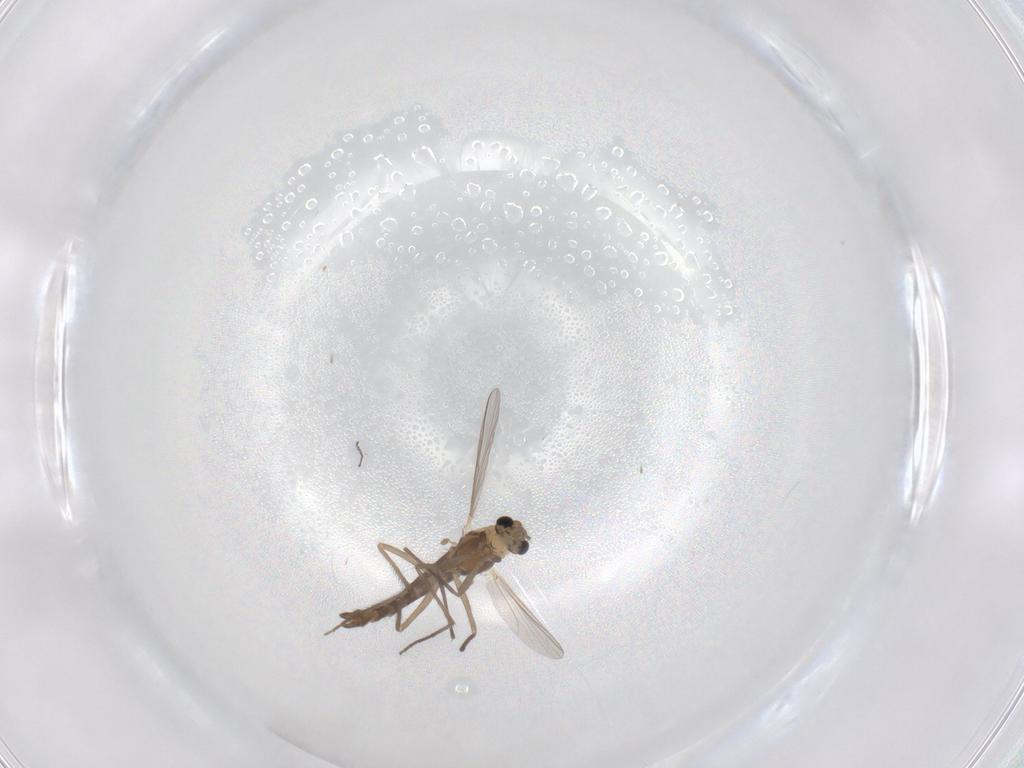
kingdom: Animalia
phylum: Arthropoda
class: Insecta
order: Diptera
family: Chironomidae
